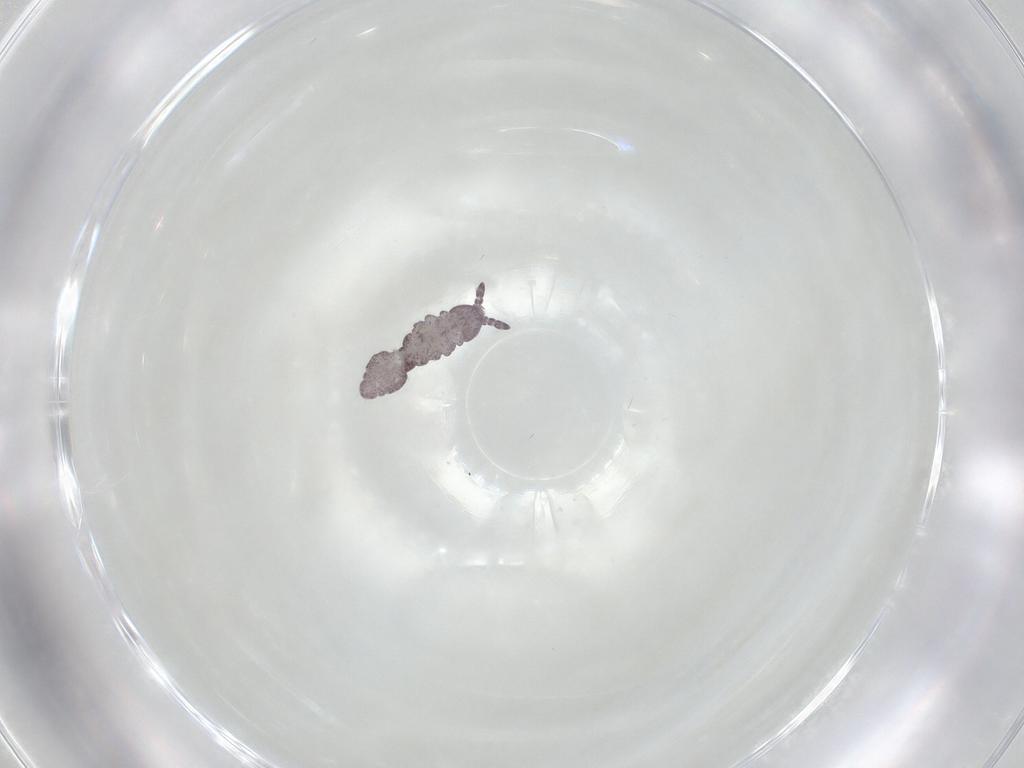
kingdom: Animalia
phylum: Arthropoda
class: Collembola
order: Poduromorpha
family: Hypogastruridae
